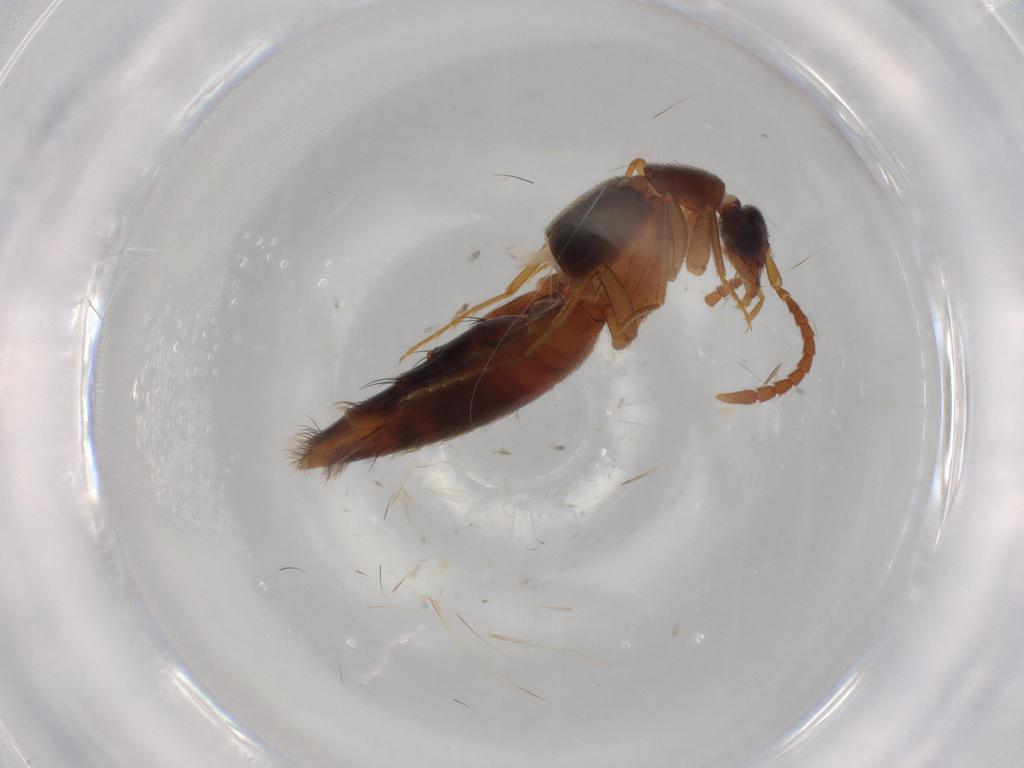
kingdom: Animalia
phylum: Arthropoda
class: Insecta
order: Coleoptera
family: Staphylinidae
